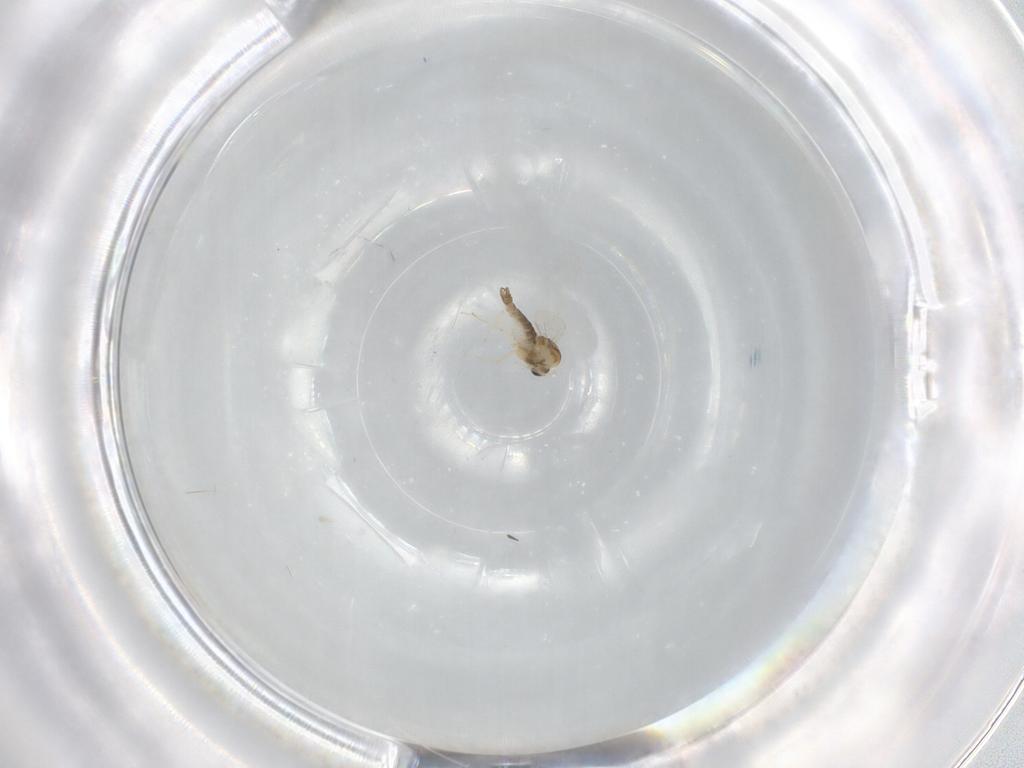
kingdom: Animalia
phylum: Arthropoda
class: Insecta
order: Diptera
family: Chironomidae
